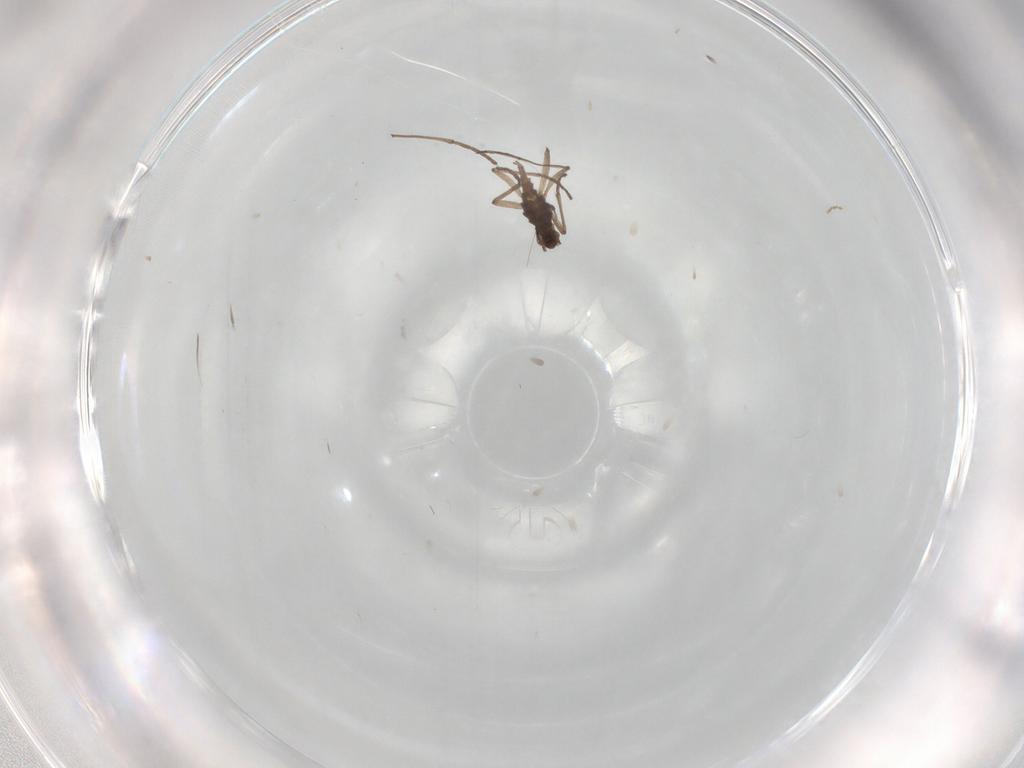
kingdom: Animalia
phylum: Arthropoda
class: Insecta
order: Diptera
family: Sciaridae
